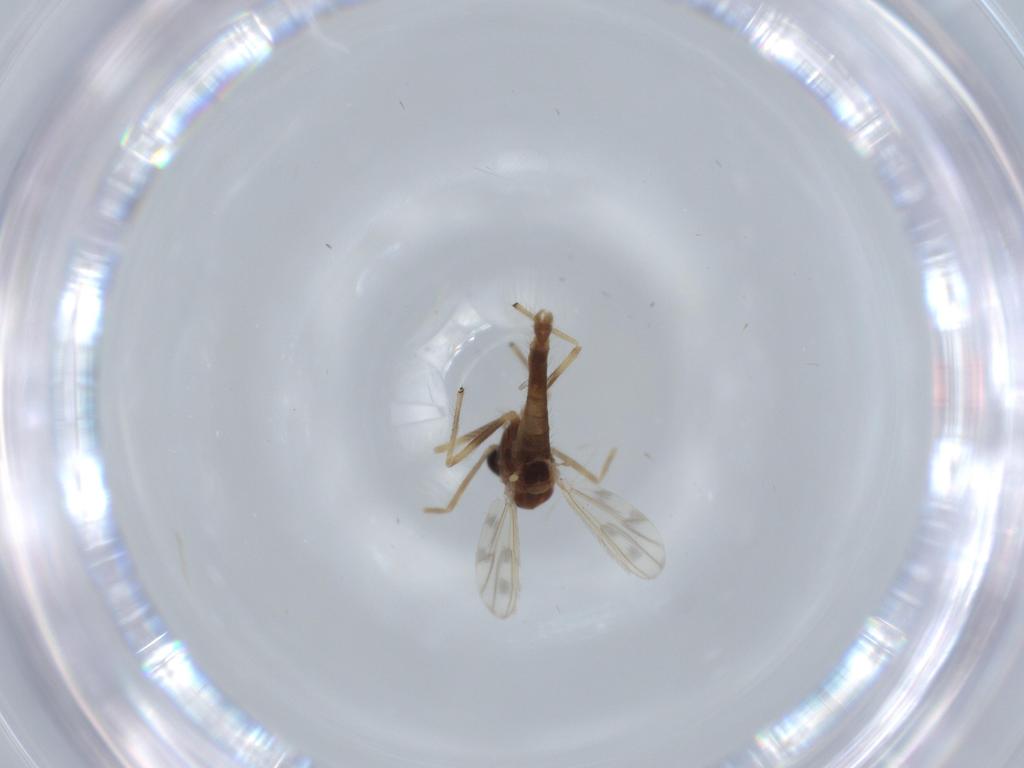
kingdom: Animalia
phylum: Arthropoda
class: Insecta
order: Diptera
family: Chironomidae
